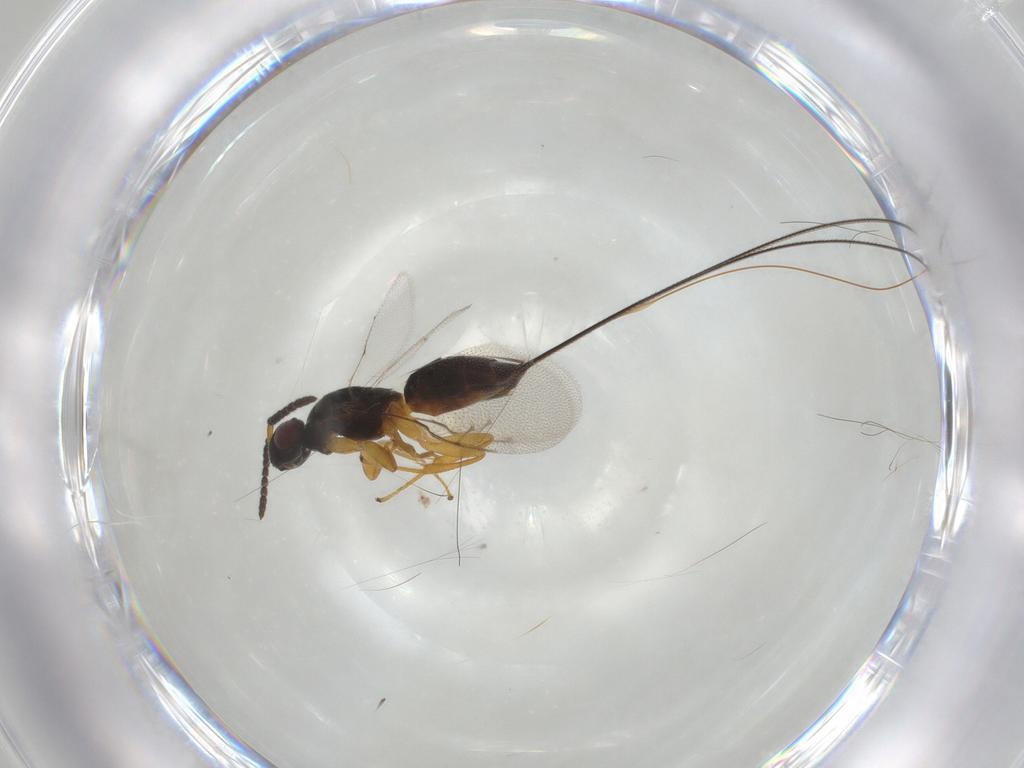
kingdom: Animalia
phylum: Arthropoda
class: Insecta
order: Hymenoptera
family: Pteromalidae
